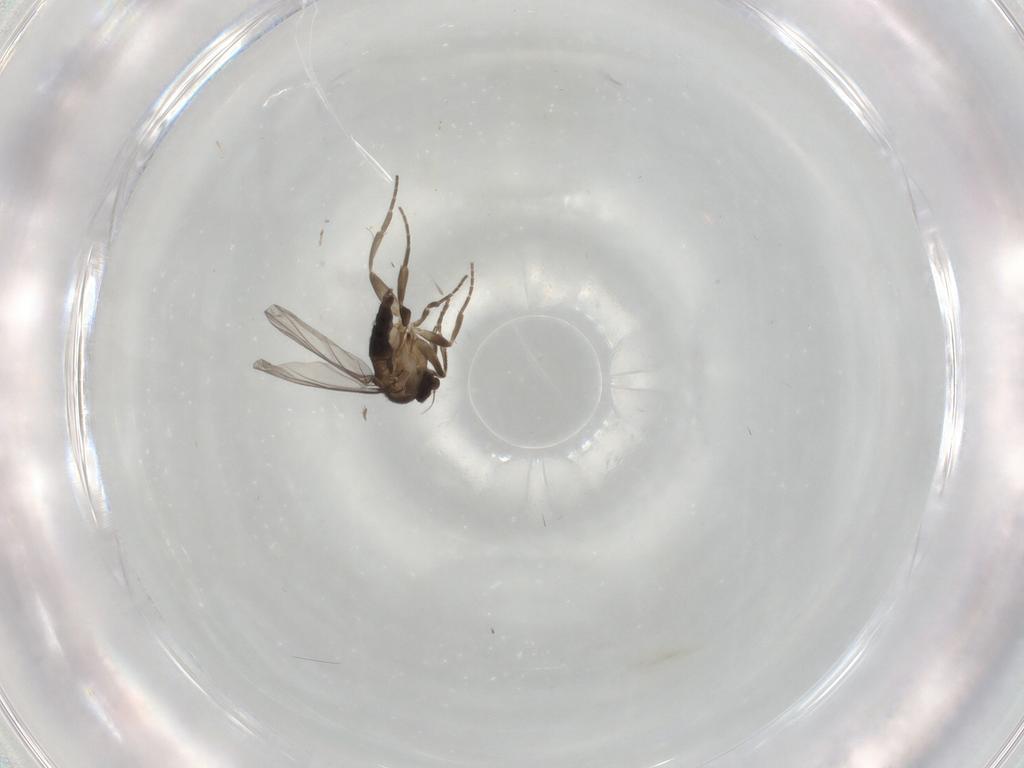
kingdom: Animalia
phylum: Arthropoda
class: Insecta
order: Diptera
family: Cecidomyiidae
